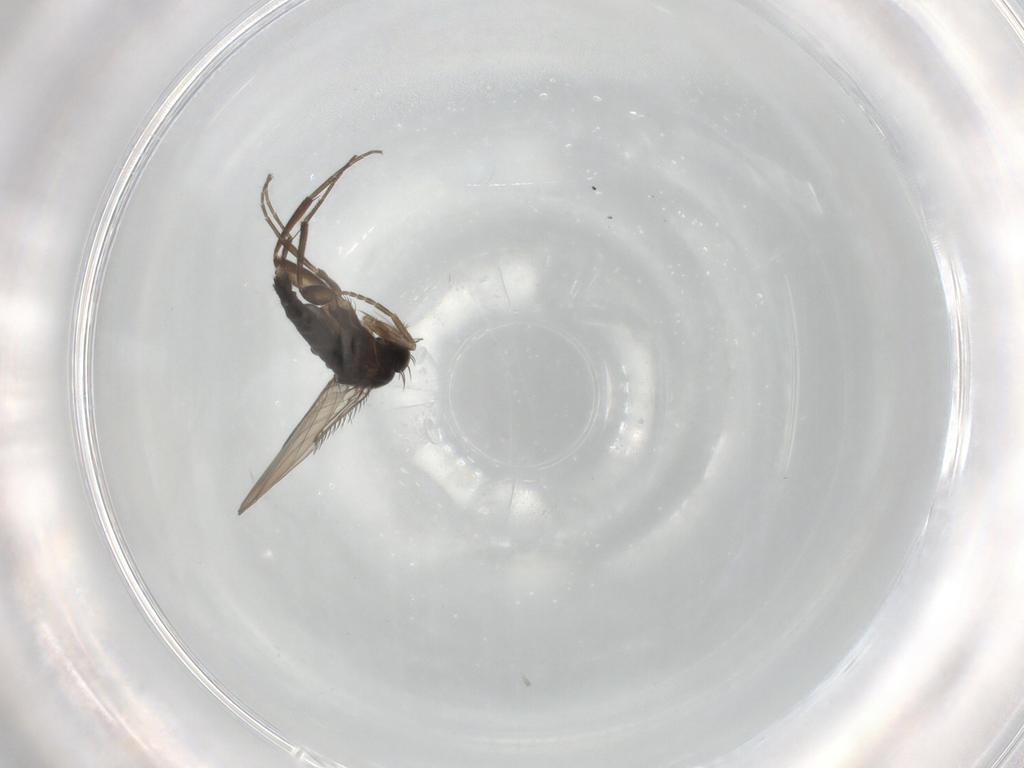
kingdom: Animalia
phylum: Arthropoda
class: Insecta
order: Diptera
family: Phoridae
